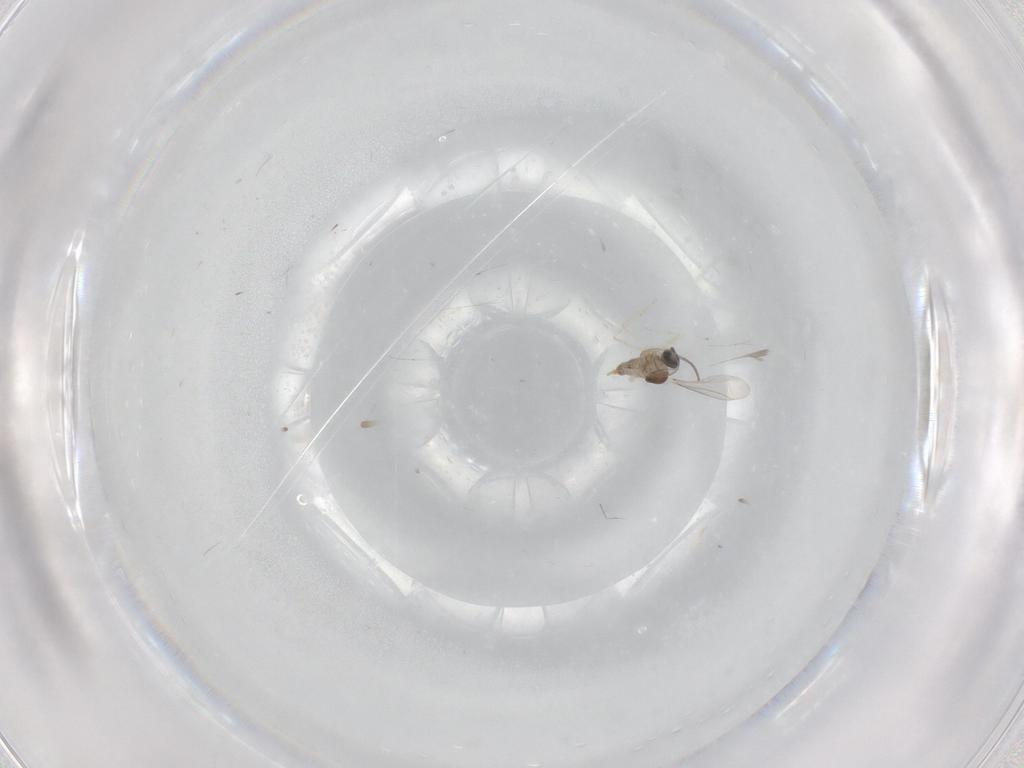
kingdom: Animalia
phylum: Arthropoda
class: Insecta
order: Diptera
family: Cecidomyiidae
